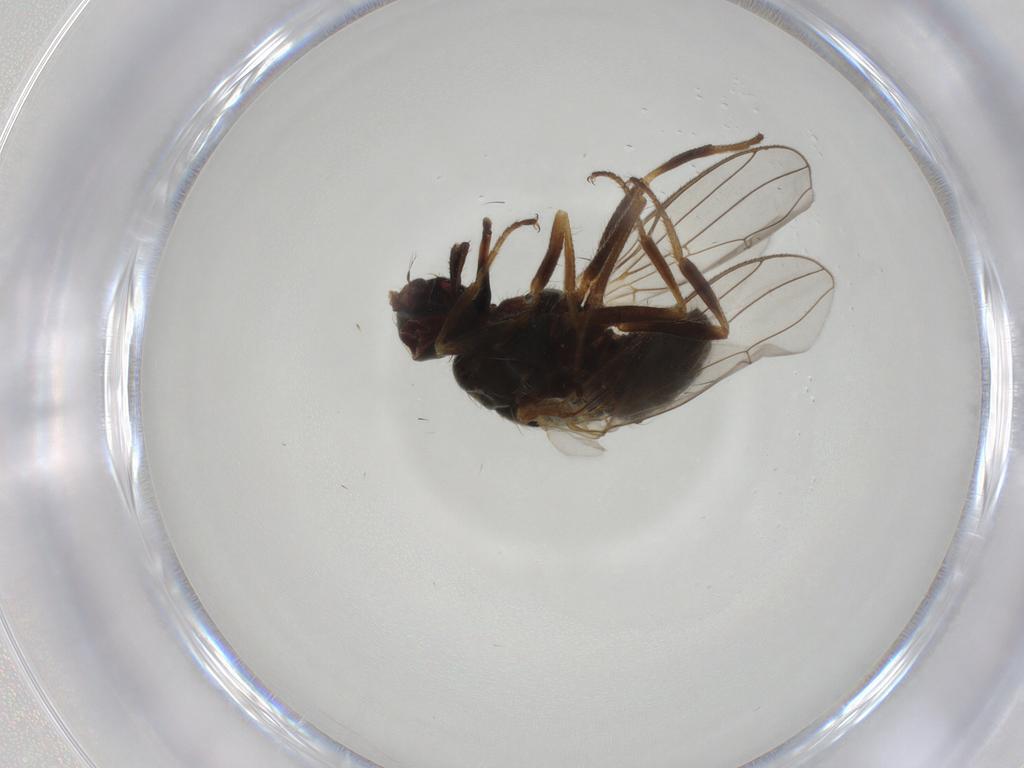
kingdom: Animalia
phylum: Arthropoda
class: Insecta
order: Diptera
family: Muscidae
